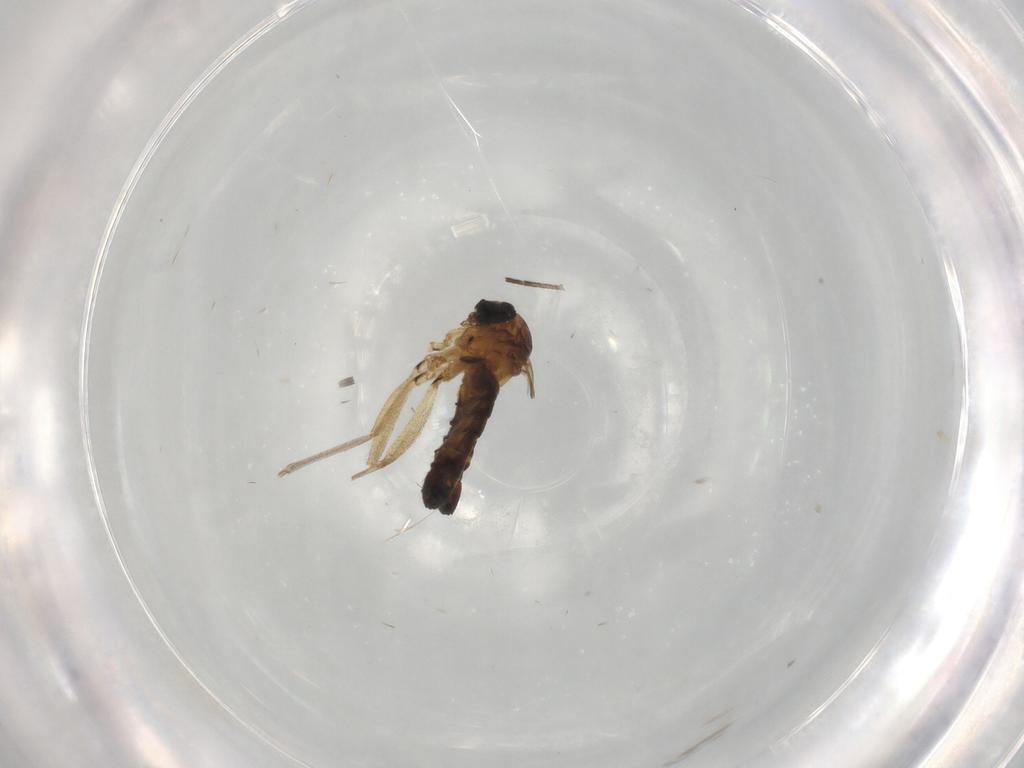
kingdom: Animalia
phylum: Arthropoda
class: Insecta
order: Diptera
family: Sciaridae
